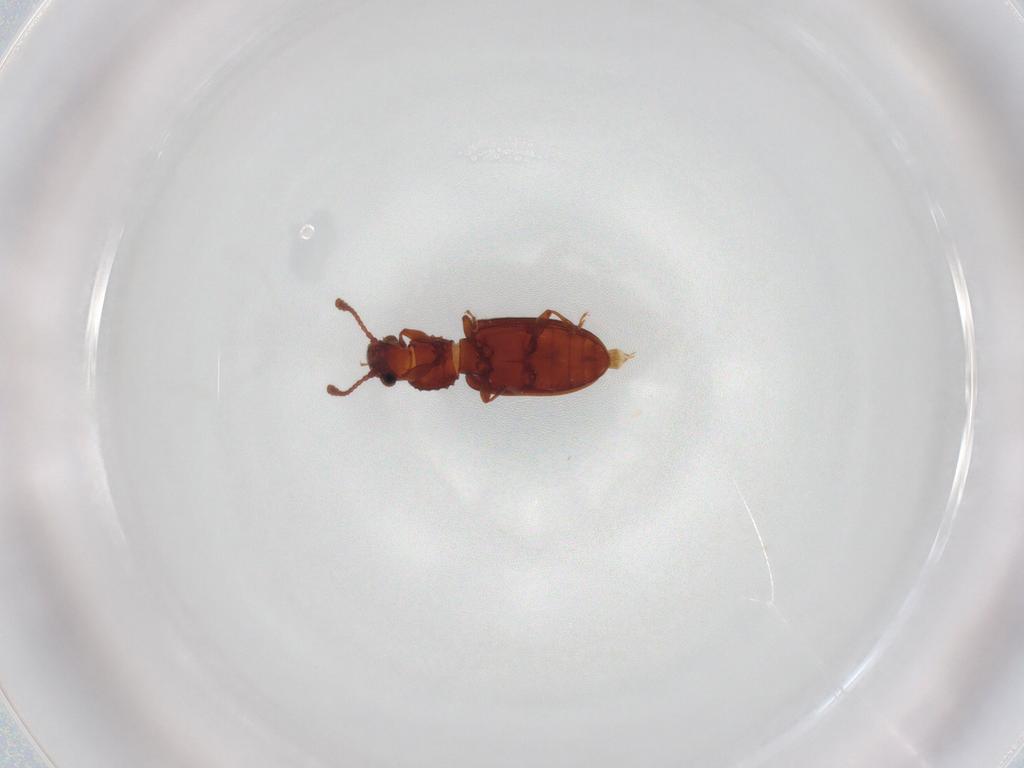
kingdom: Animalia
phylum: Arthropoda
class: Insecta
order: Coleoptera
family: Silvanidae
